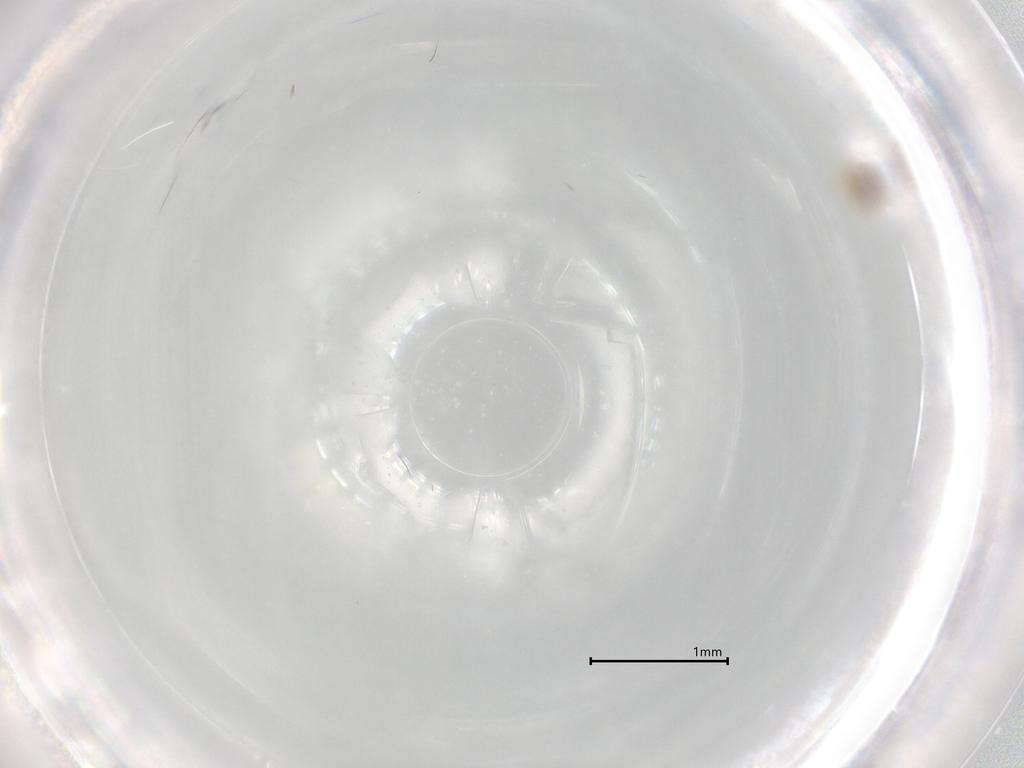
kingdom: Animalia
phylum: Arthropoda
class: Insecta
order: Diptera
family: Cecidomyiidae
